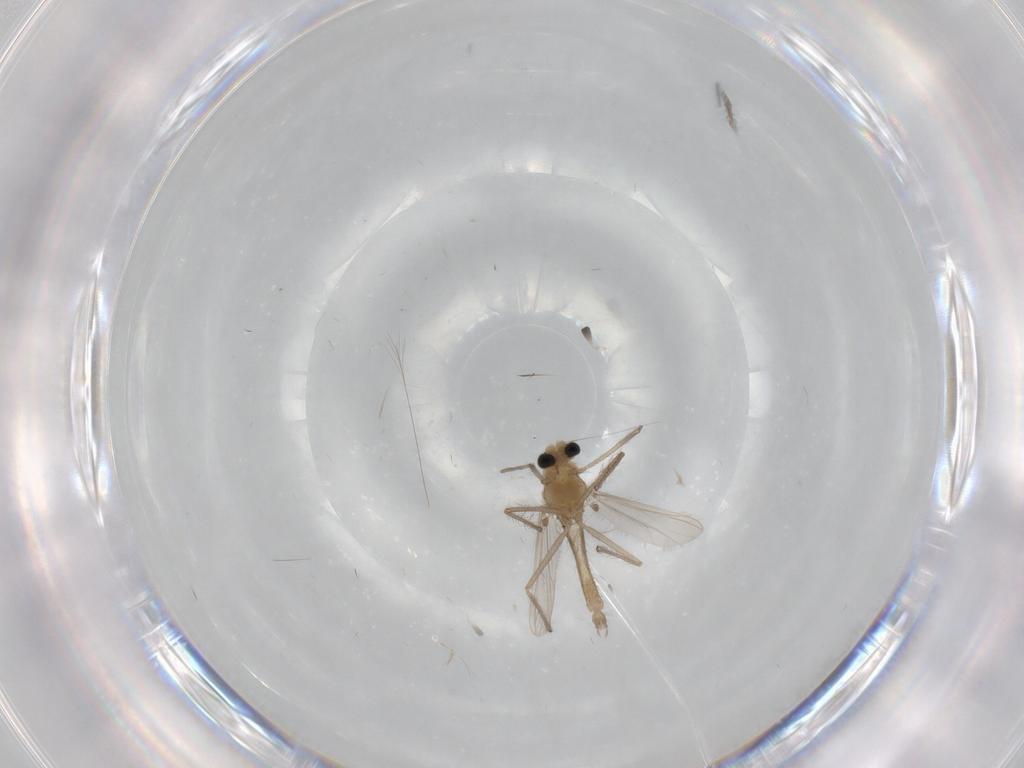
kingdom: Animalia
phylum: Arthropoda
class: Insecta
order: Diptera
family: Chironomidae
